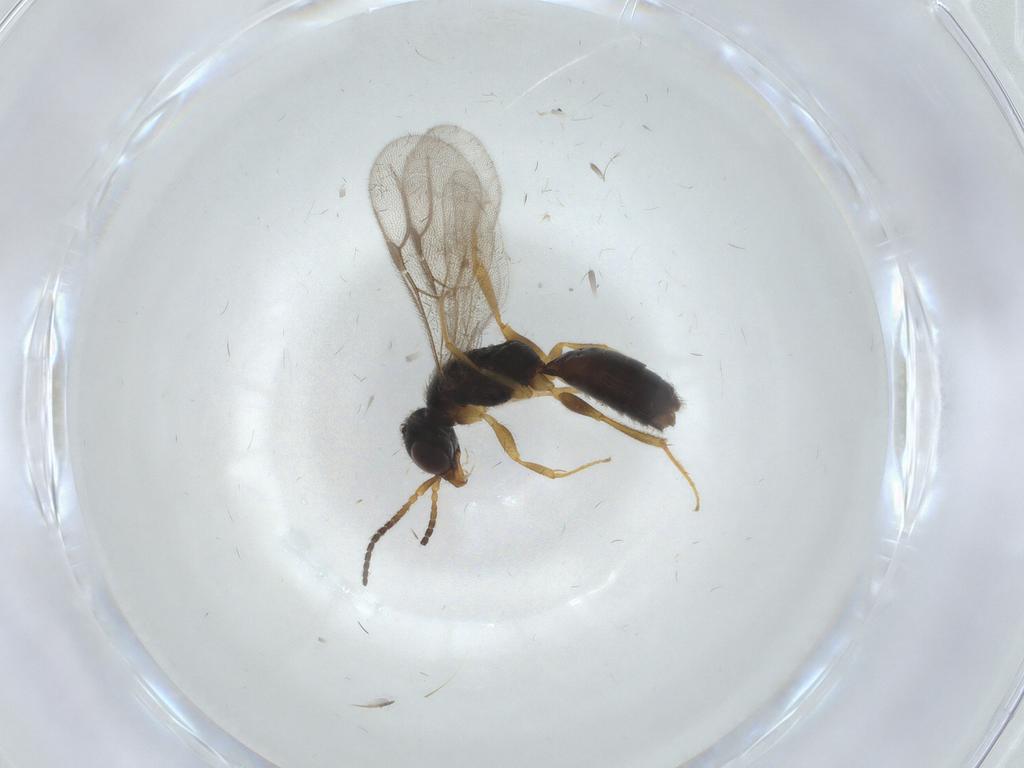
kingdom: Animalia
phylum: Arthropoda
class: Insecta
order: Hymenoptera
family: Bethylidae
